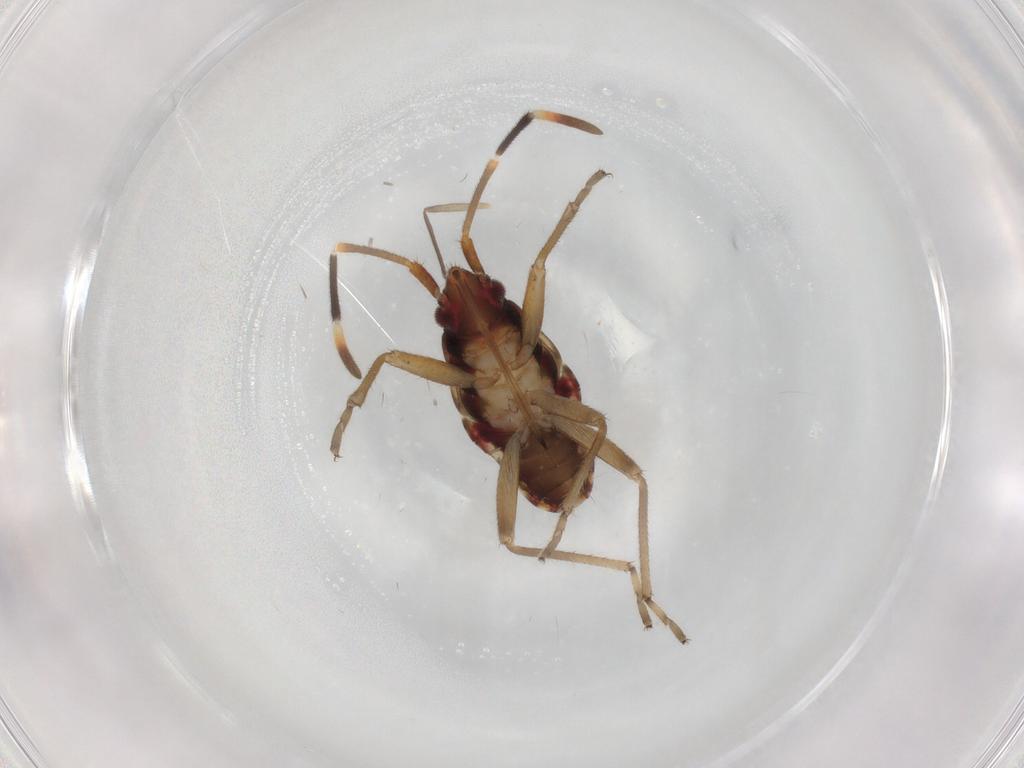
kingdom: Animalia
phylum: Arthropoda
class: Insecta
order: Hemiptera
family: Rhyparochromidae
